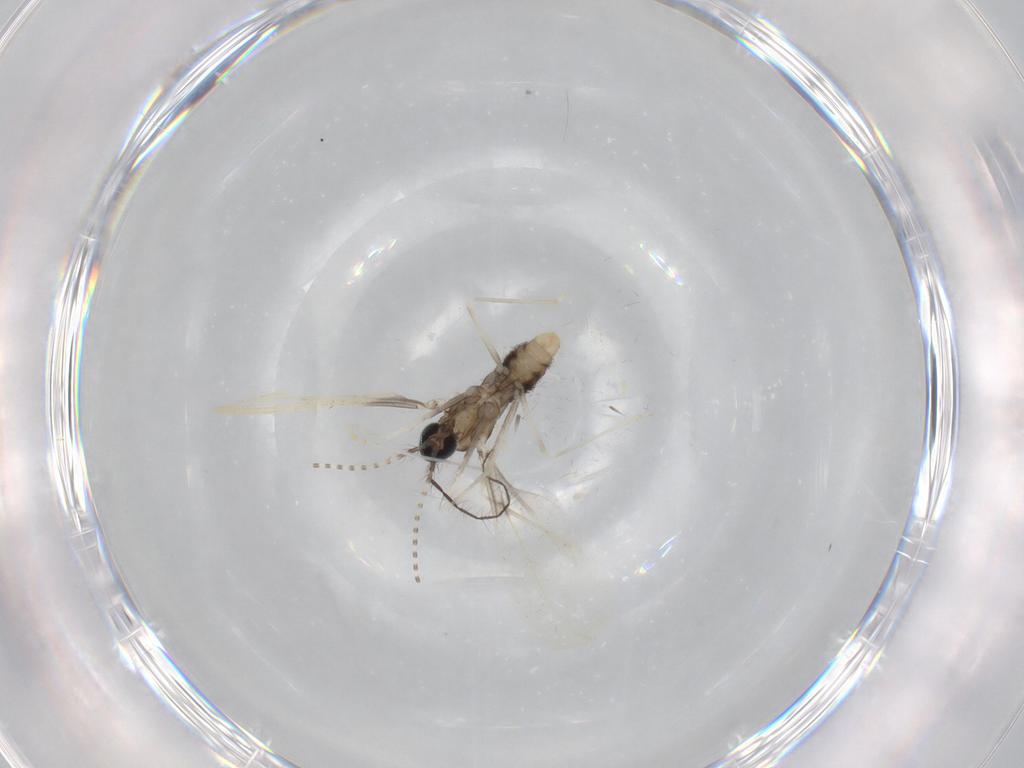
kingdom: Animalia
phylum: Arthropoda
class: Insecta
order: Diptera
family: Cecidomyiidae
